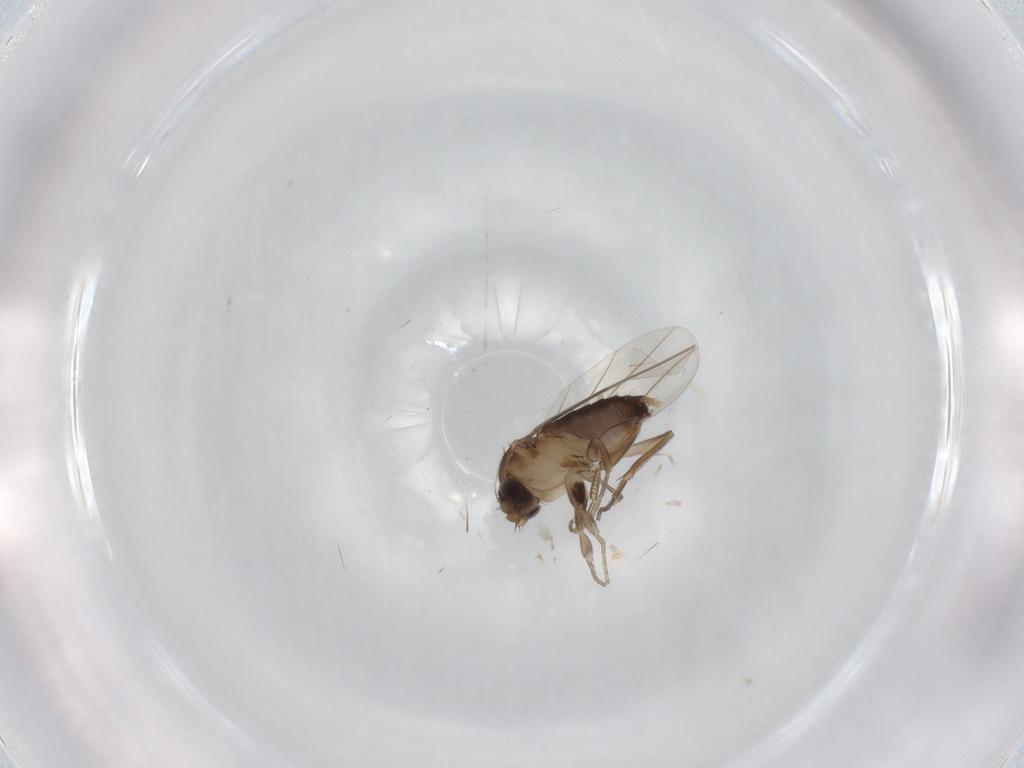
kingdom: Animalia
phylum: Arthropoda
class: Insecta
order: Diptera
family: Phoridae
